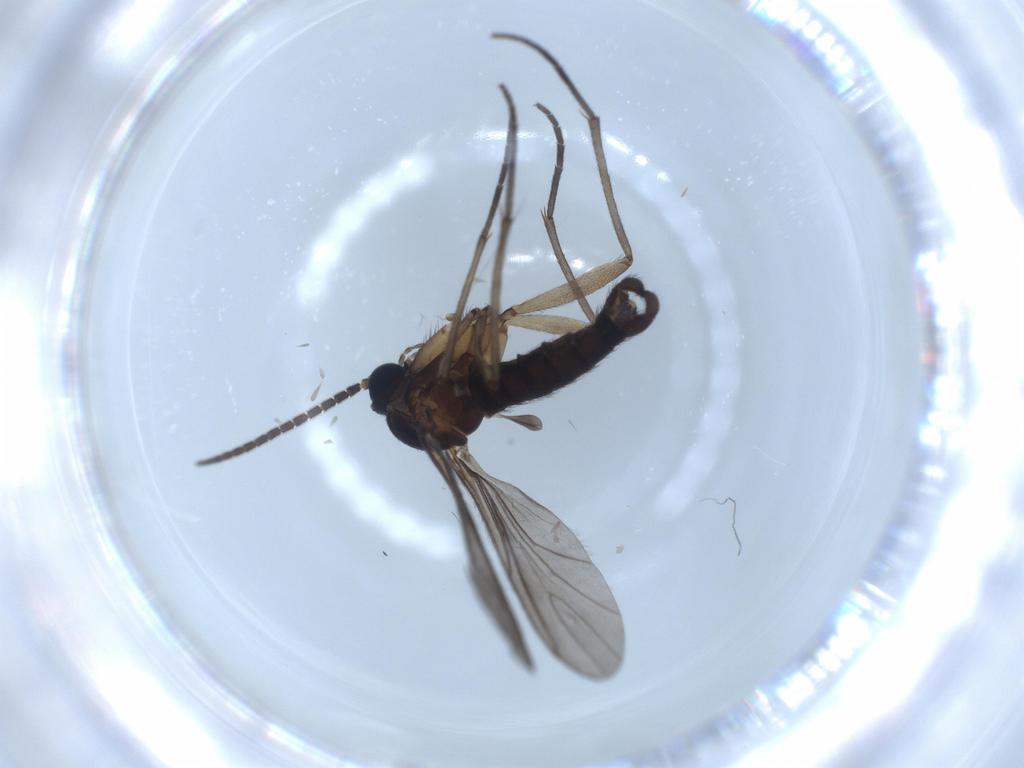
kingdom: Animalia
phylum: Arthropoda
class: Insecta
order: Diptera
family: Sciaridae
